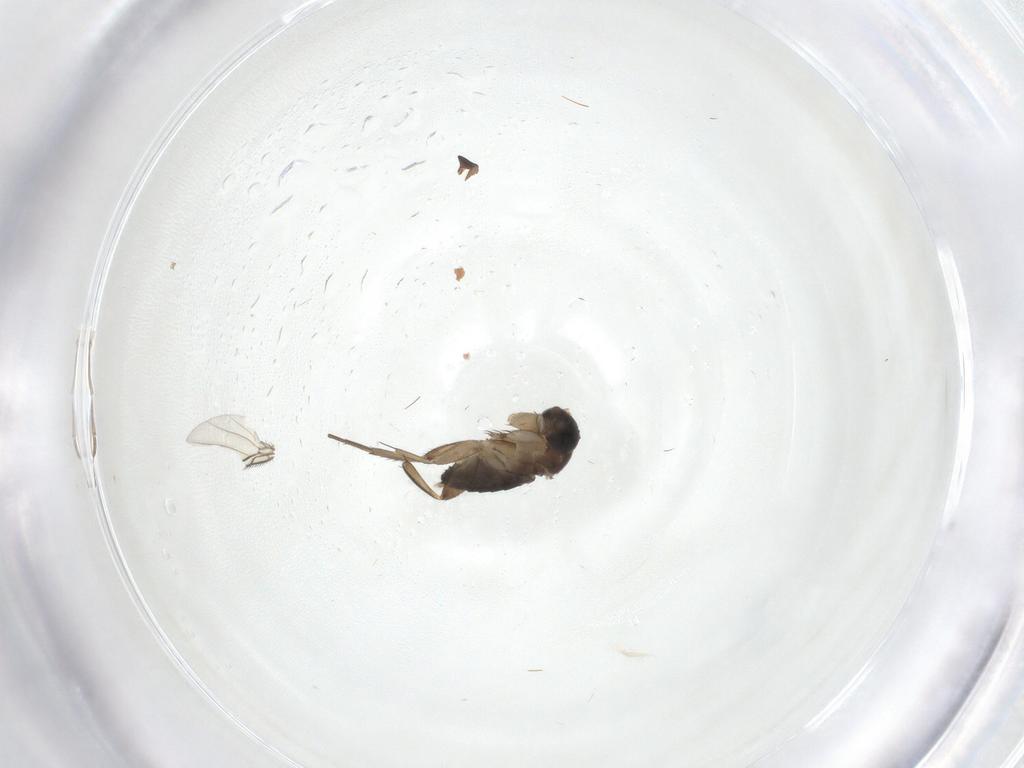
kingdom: Animalia
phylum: Arthropoda
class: Insecta
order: Diptera
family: Phoridae
